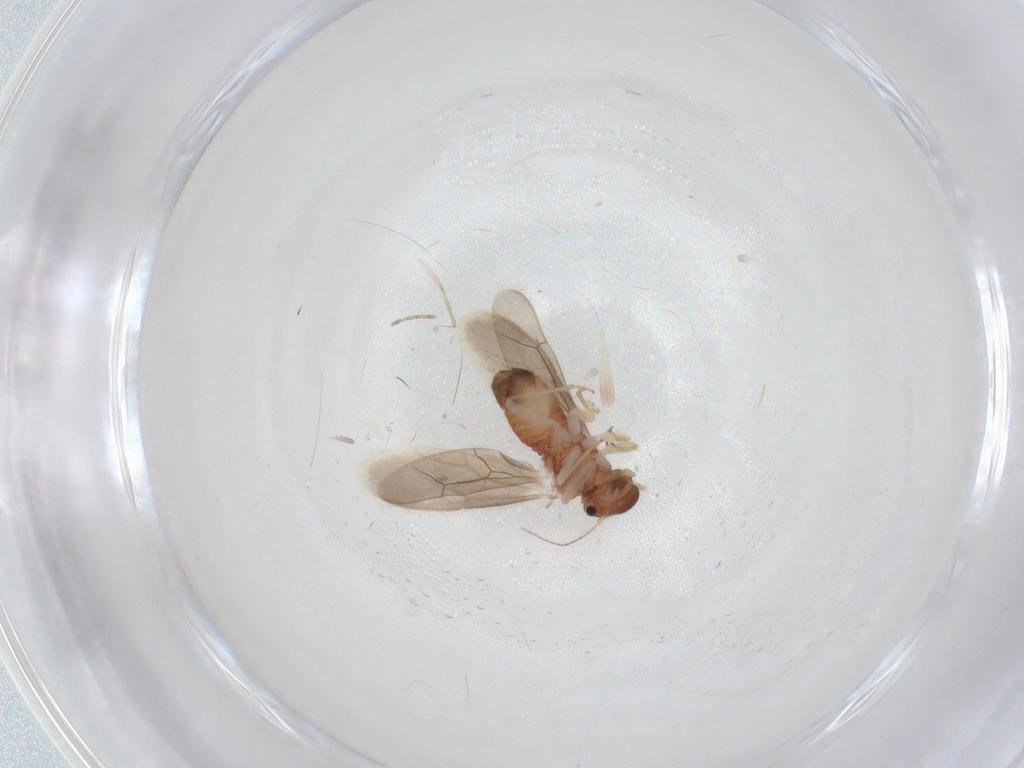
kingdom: Animalia
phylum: Arthropoda
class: Insecta
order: Psocodea
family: Archipsocidae
